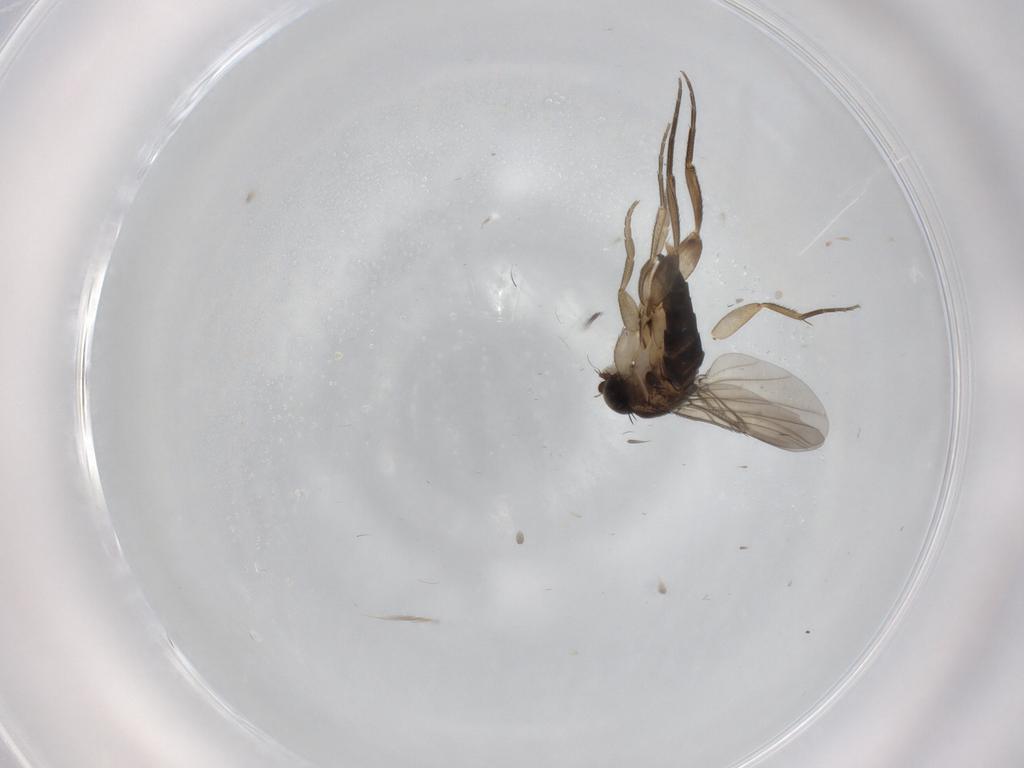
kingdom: Animalia
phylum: Arthropoda
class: Insecta
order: Diptera
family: Phoridae
